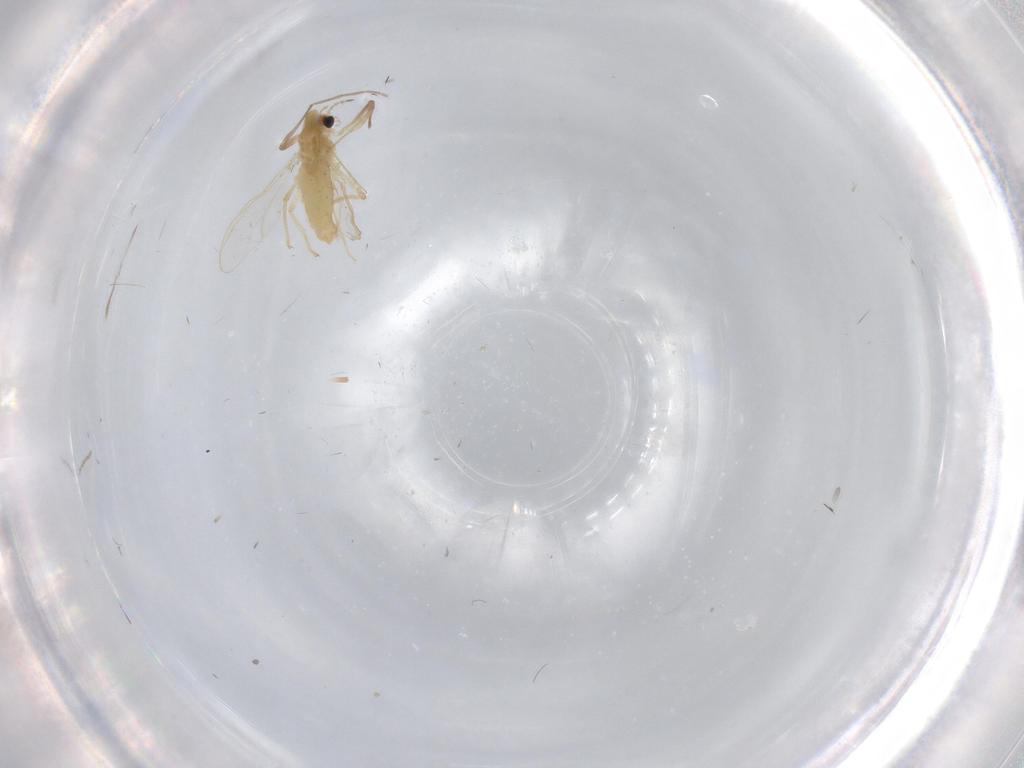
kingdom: Animalia
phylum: Arthropoda
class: Insecta
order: Diptera
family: Chironomidae
